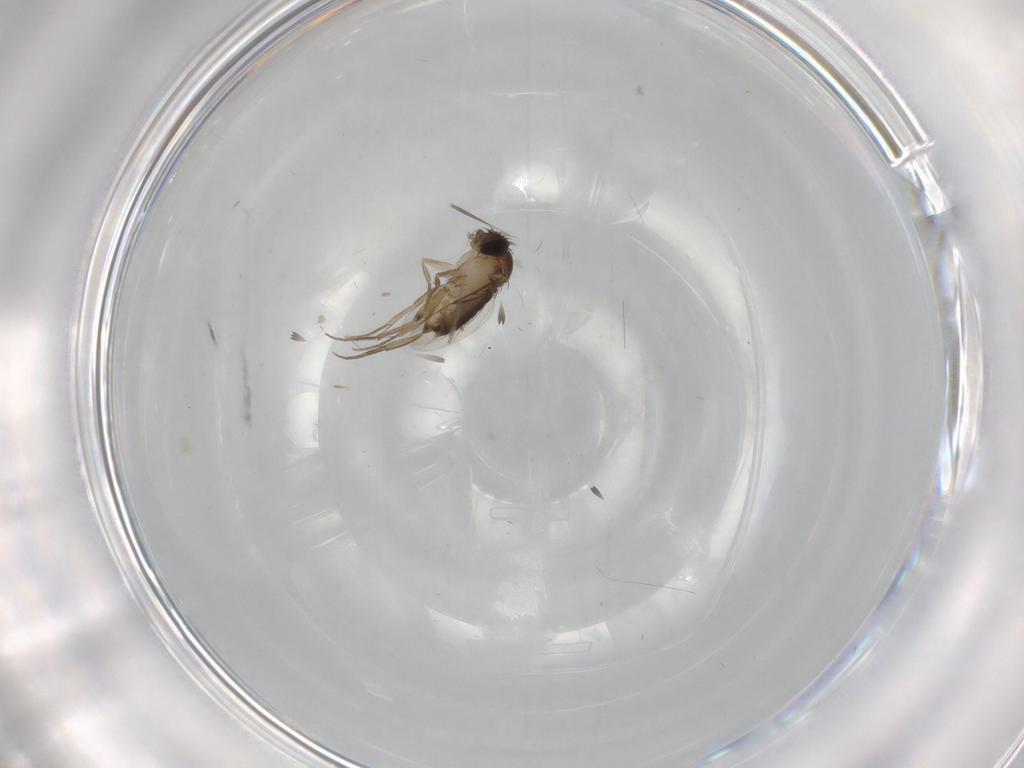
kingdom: Animalia
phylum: Arthropoda
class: Insecta
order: Diptera
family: Phoridae
